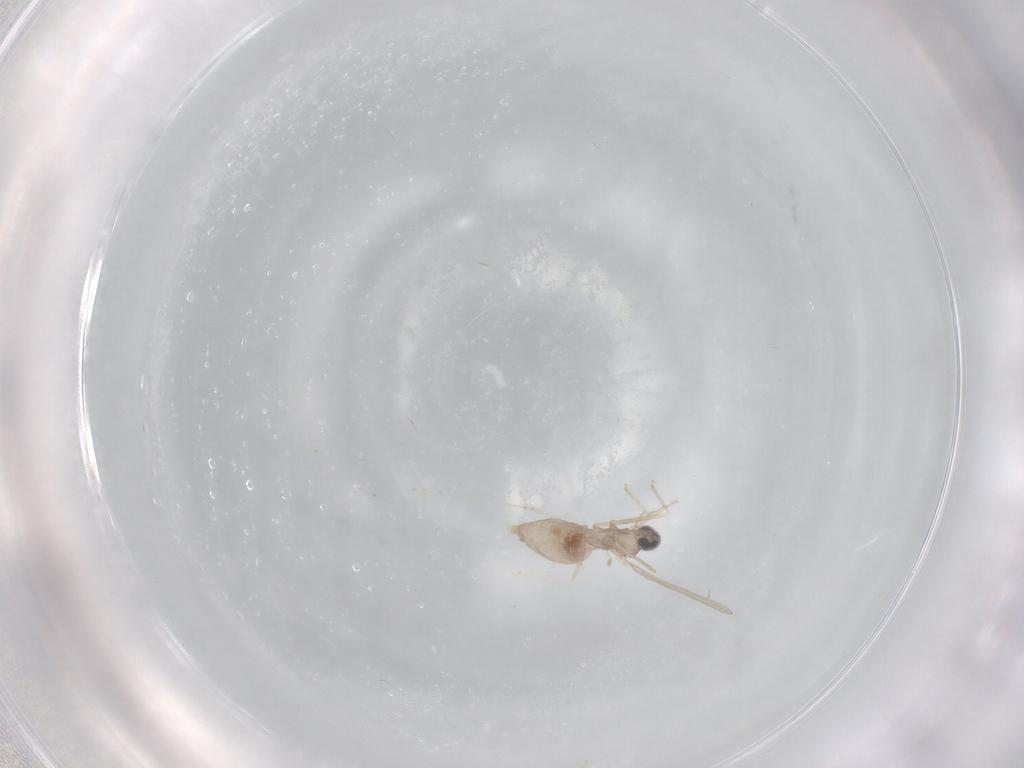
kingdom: Animalia
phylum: Arthropoda
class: Insecta
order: Diptera
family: Cecidomyiidae
